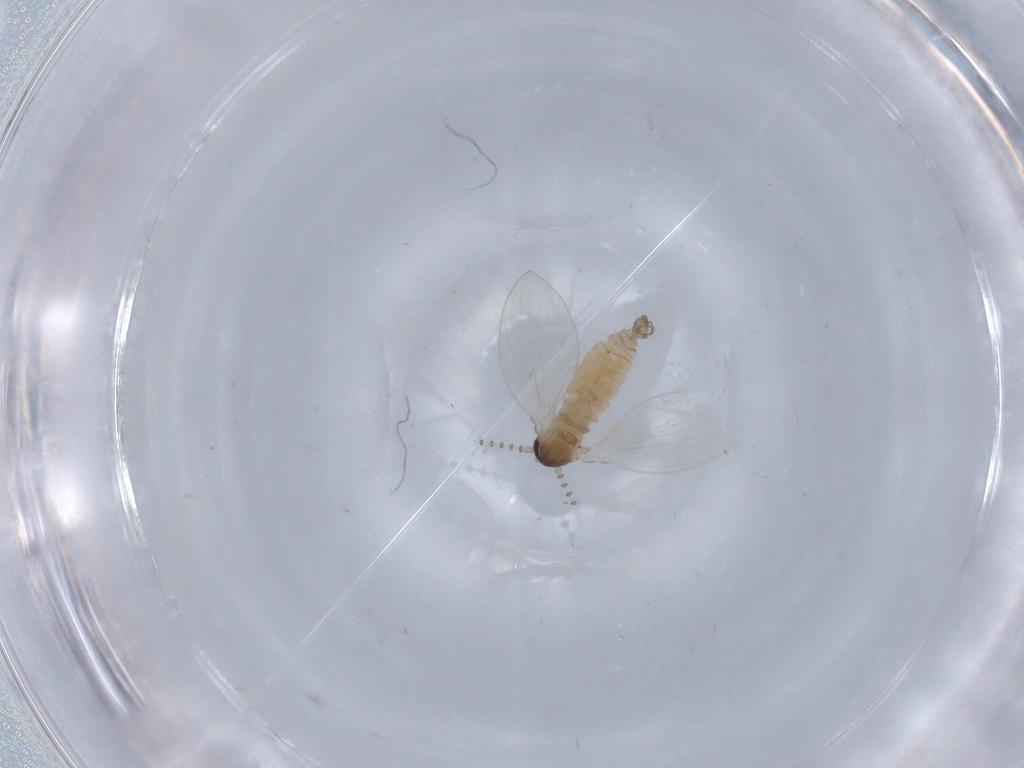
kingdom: Animalia
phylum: Arthropoda
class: Insecta
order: Diptera
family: Psychodidae
